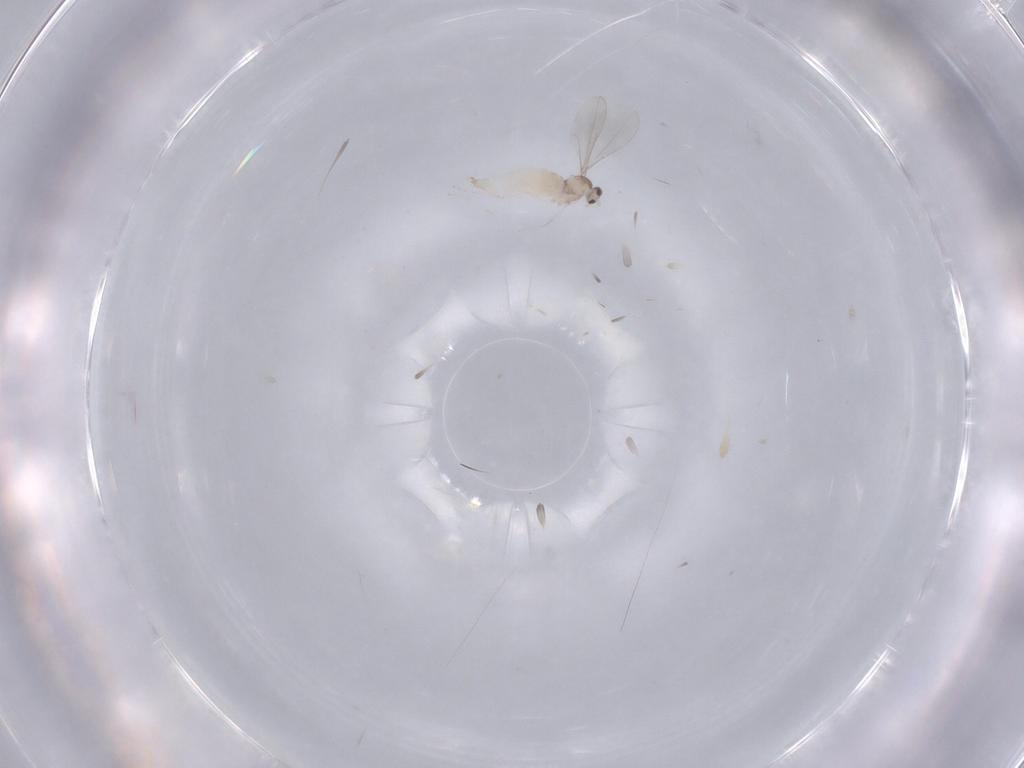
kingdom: Animalia
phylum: Arthropoda
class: Insecta
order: Diptera
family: Cecidomyiidae
